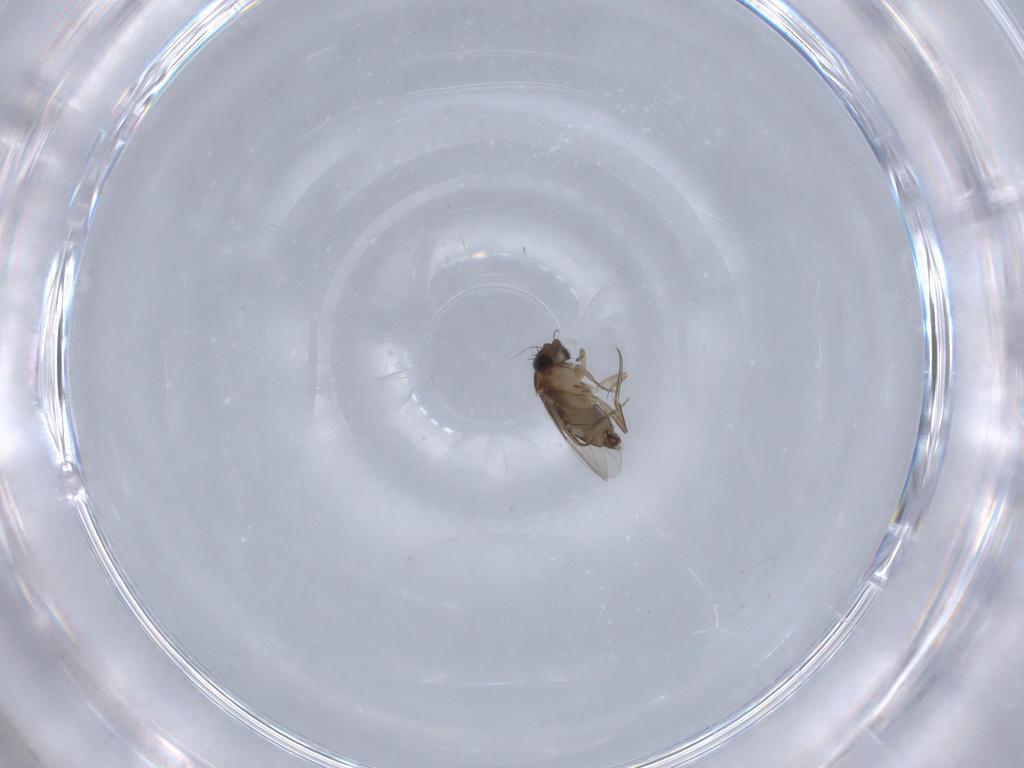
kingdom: Animalia
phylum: Arthropoda
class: Insecta
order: Diptera
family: Phoridae
